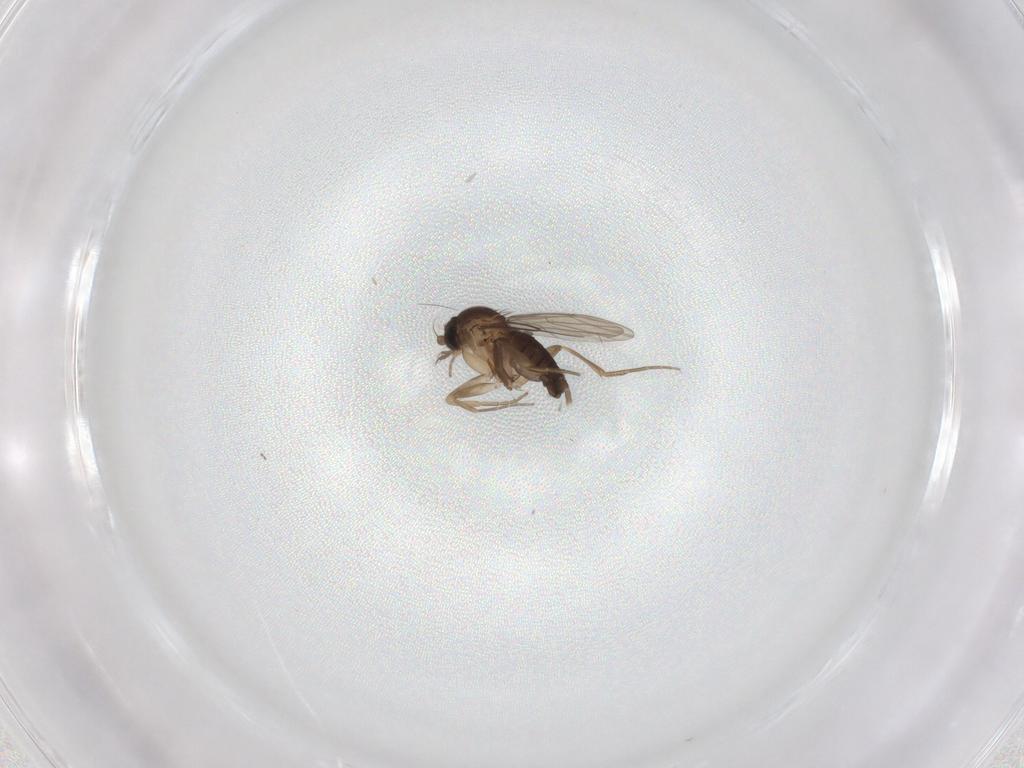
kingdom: Animalia
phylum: Arthropoda
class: Insecta
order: Diptera
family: Phoridae
